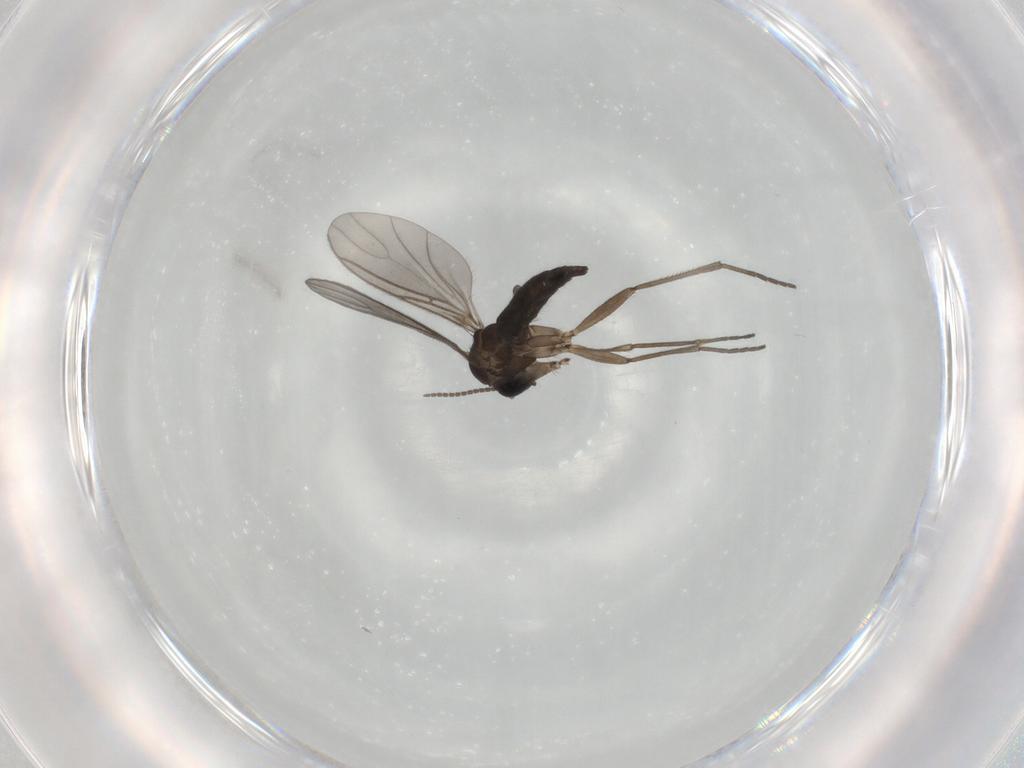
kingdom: Animalia
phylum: Arthropoda
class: Insecta
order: Diptera
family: Sciaridae
